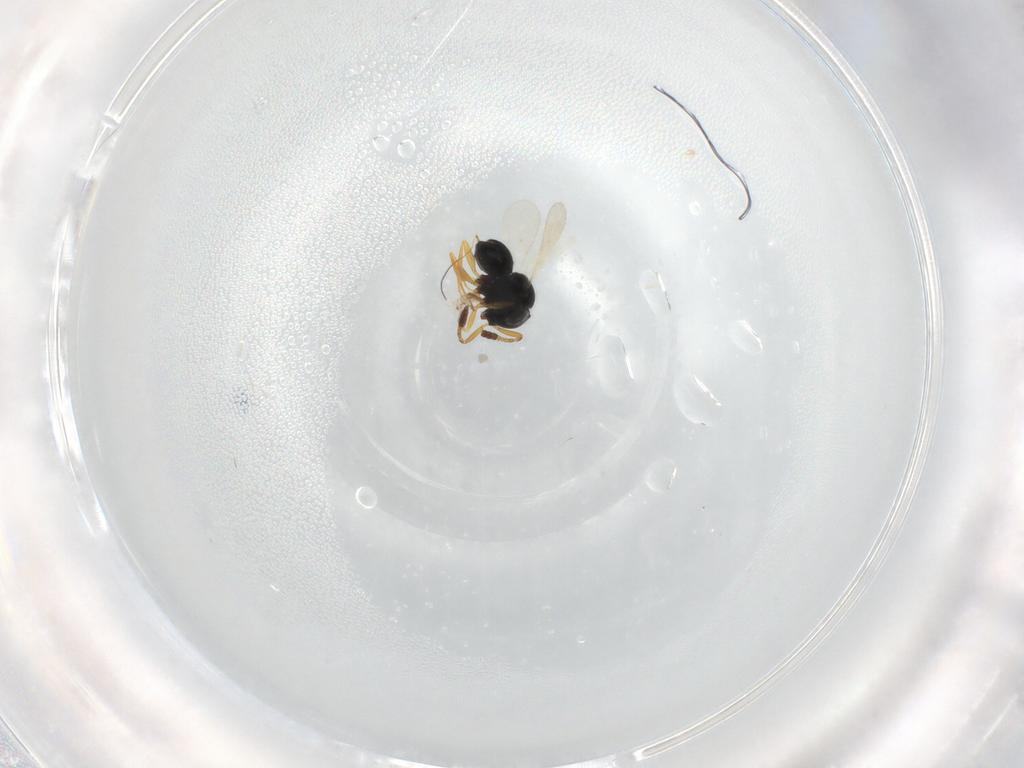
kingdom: Animalia
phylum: Arthropoda
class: Insecta
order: Hymenoptera
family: Scelionidae
